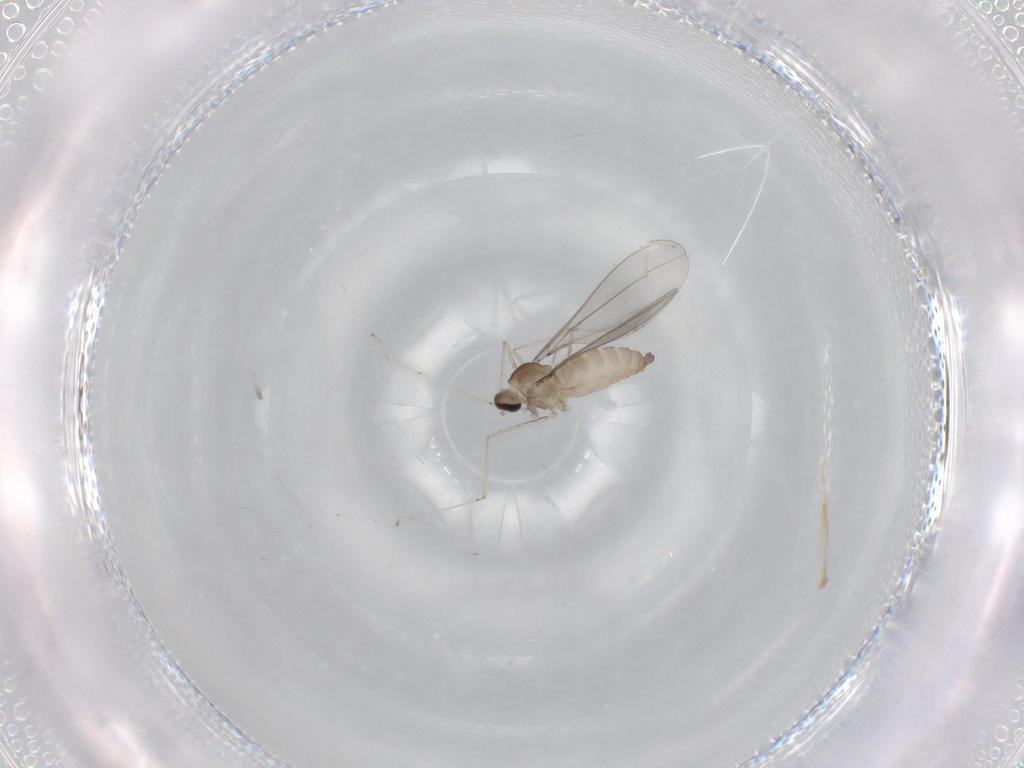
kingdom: Animalia
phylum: Arthropoda
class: Insecta
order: Diptera
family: Cecidomyiidae
